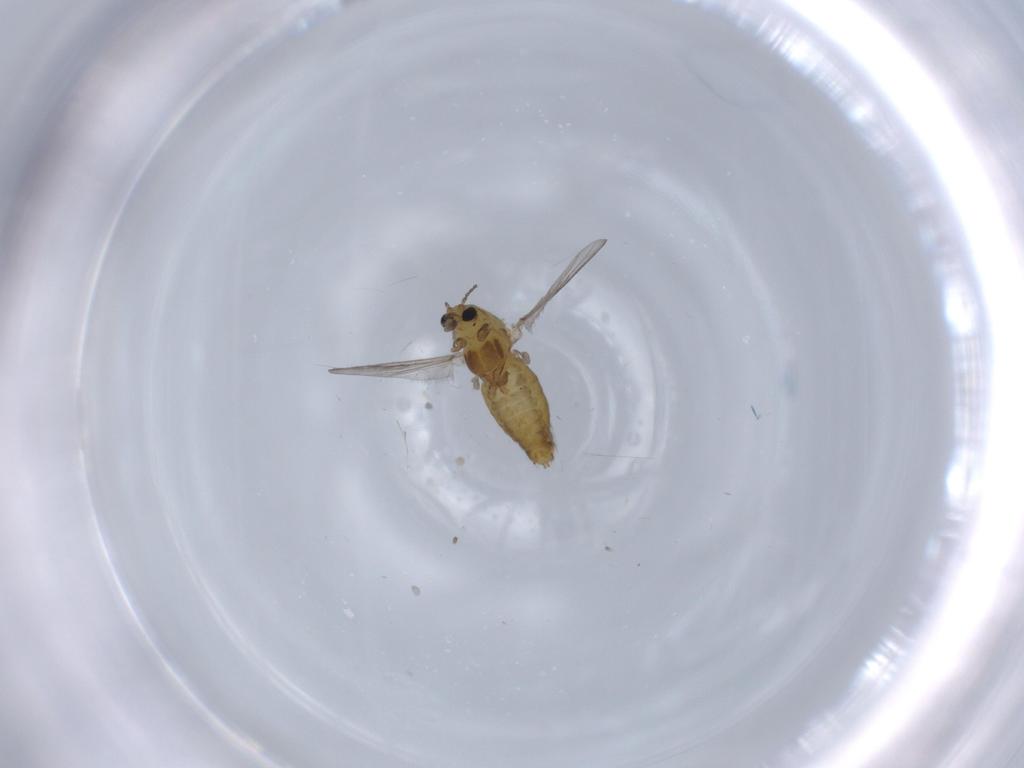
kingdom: Animalia
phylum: Arthropoda
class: Insecta
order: Diptera
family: Chironomidae
